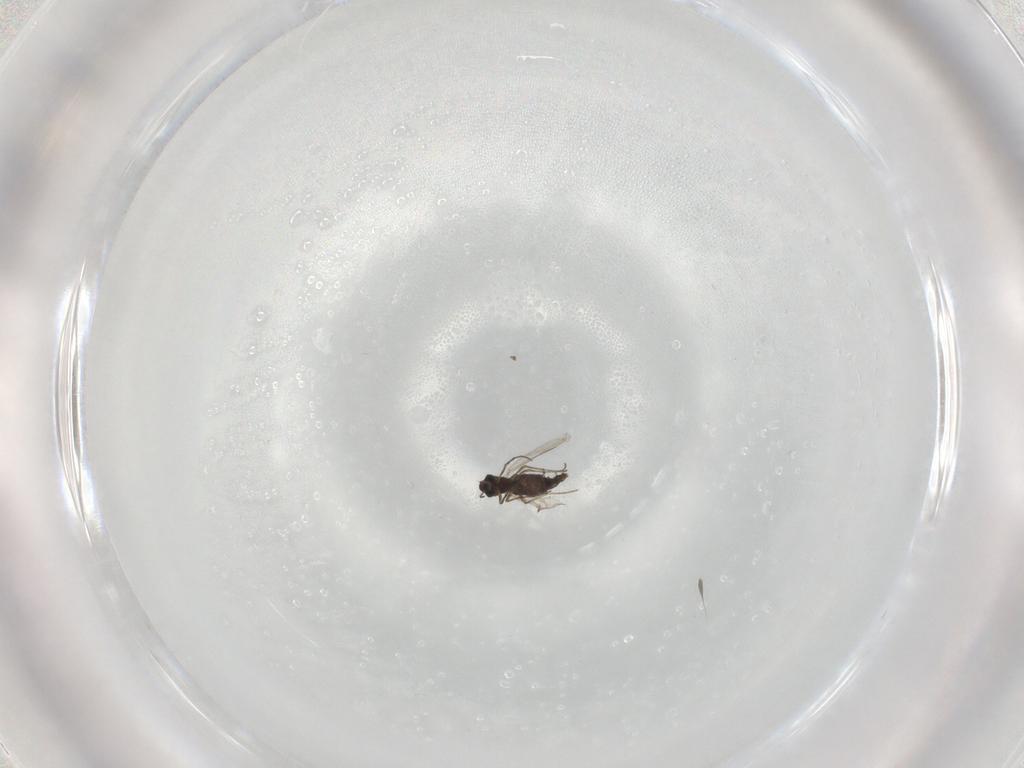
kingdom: Animalia
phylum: Arthropoda
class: Insecta
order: Diptera
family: Chironomidae
